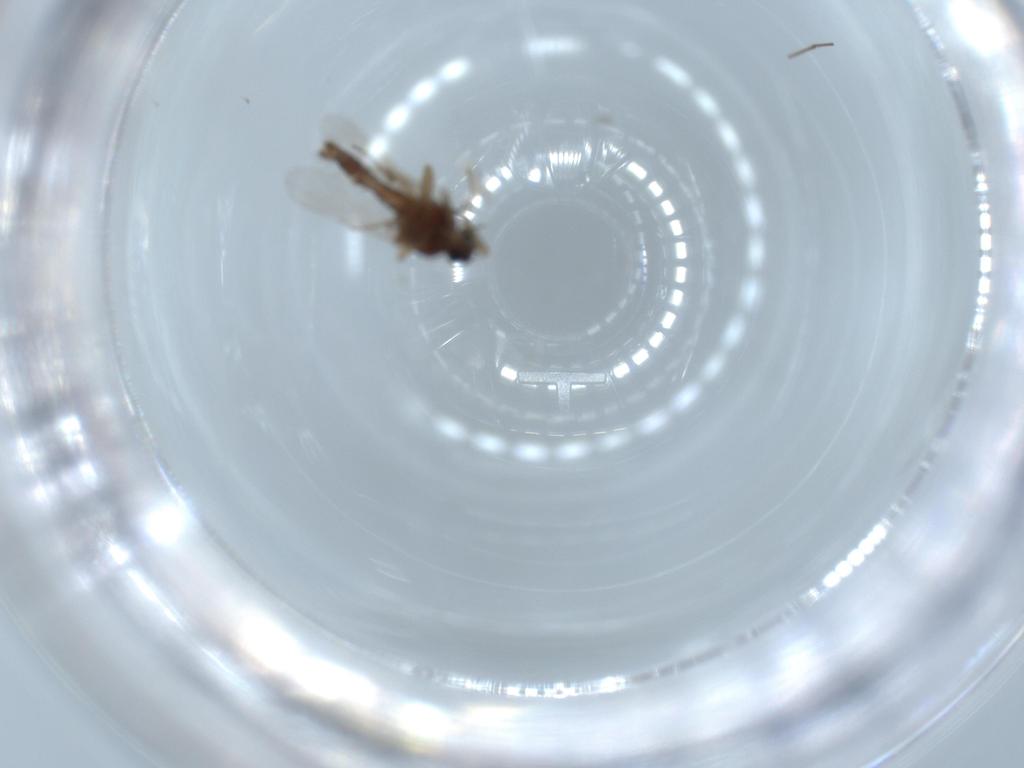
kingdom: Animalia
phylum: Arthropoda
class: Insecta
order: Diptera
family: Ceratopogonidae
